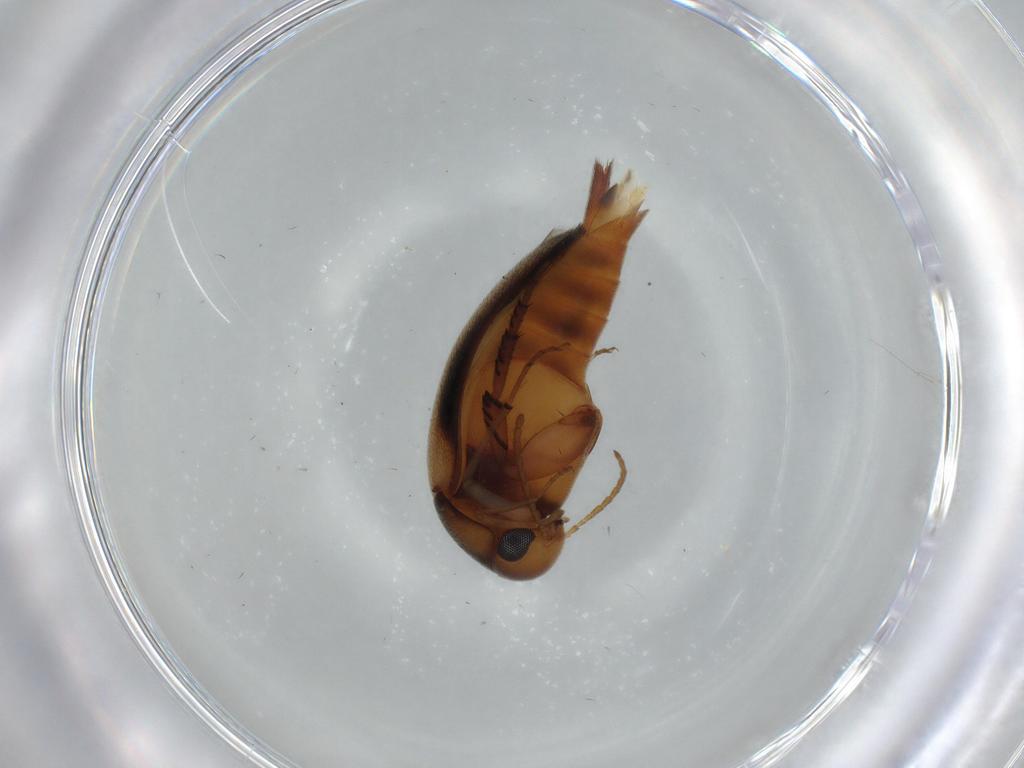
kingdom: Animalia
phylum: Arthropoda
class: Insecta
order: Coleoptera
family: Mordellidae
